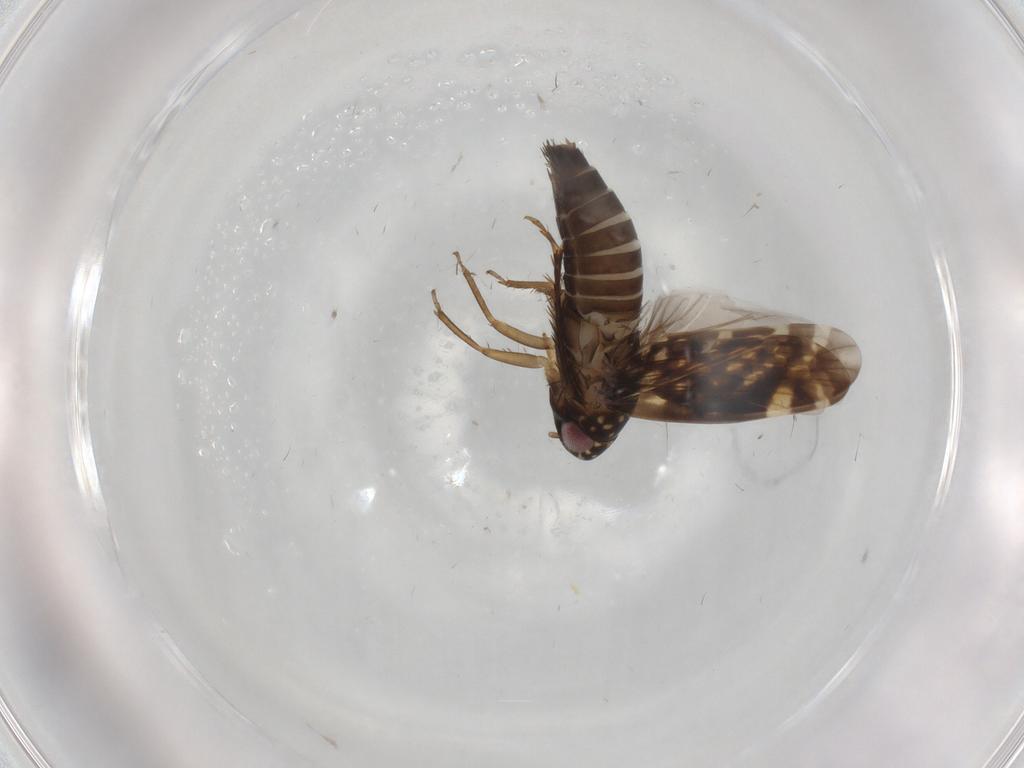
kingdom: Animalia
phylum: Arthropoda
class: Insecta
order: Hemiptera
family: Cicadellidae
